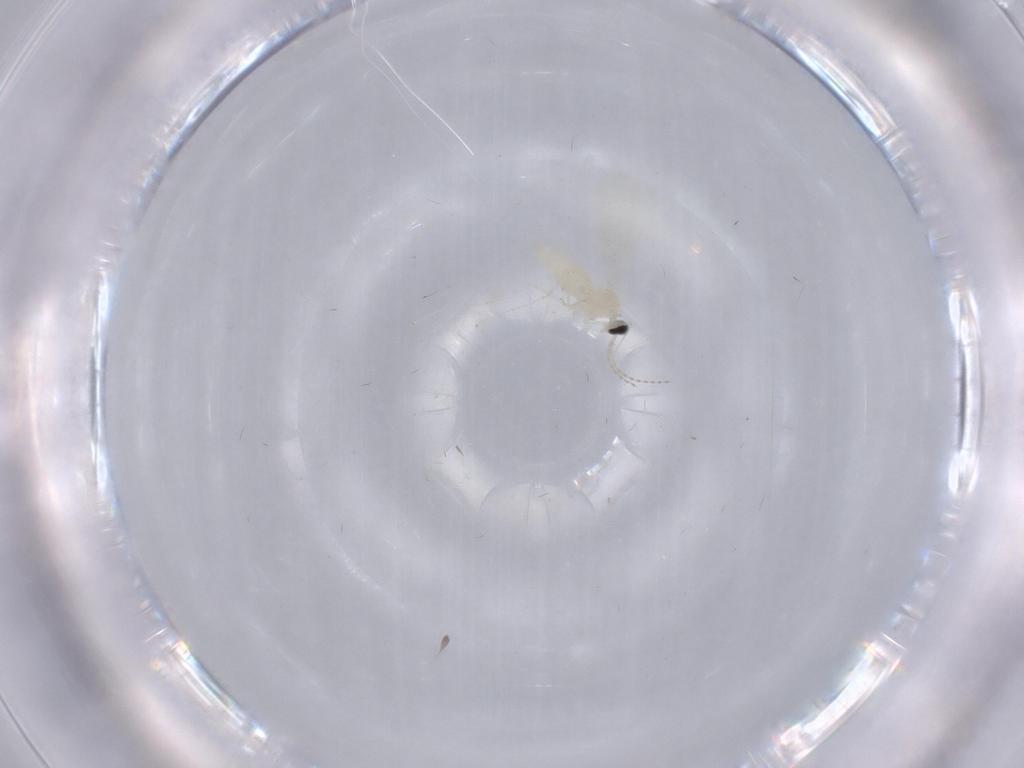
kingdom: Animalia
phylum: Arthropoda
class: Insecta
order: Diptera
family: Cecidomyiidae
